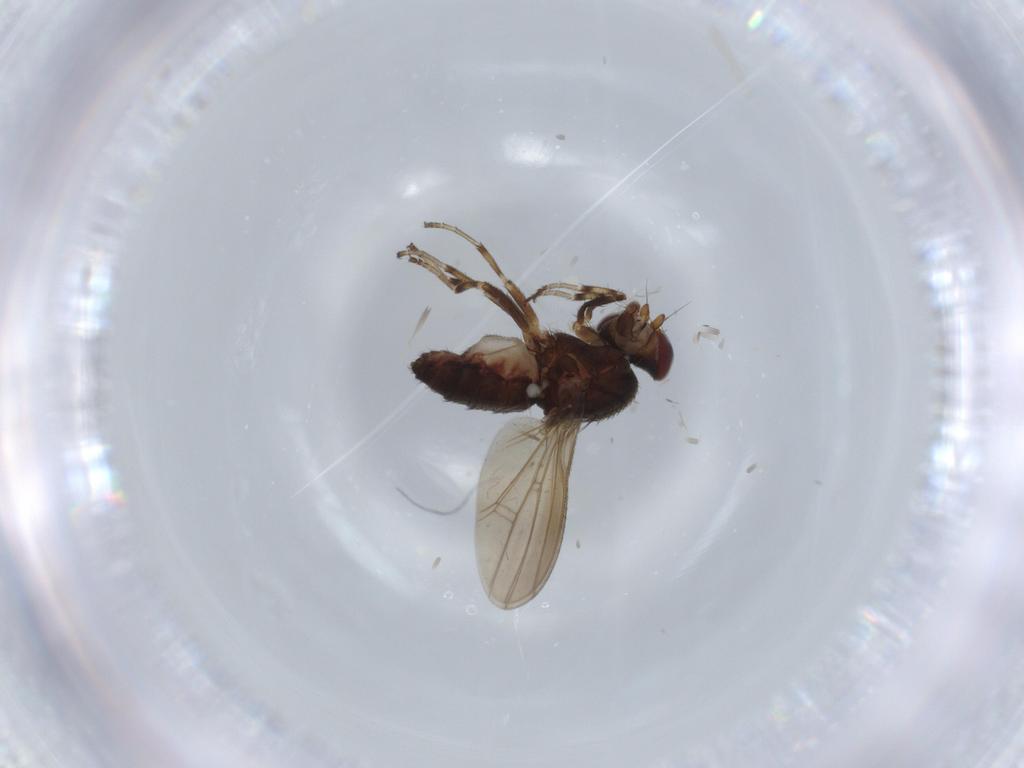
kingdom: Animalia
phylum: Arthropoda
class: Insecta
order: Diptera
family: Heleomyzidae
